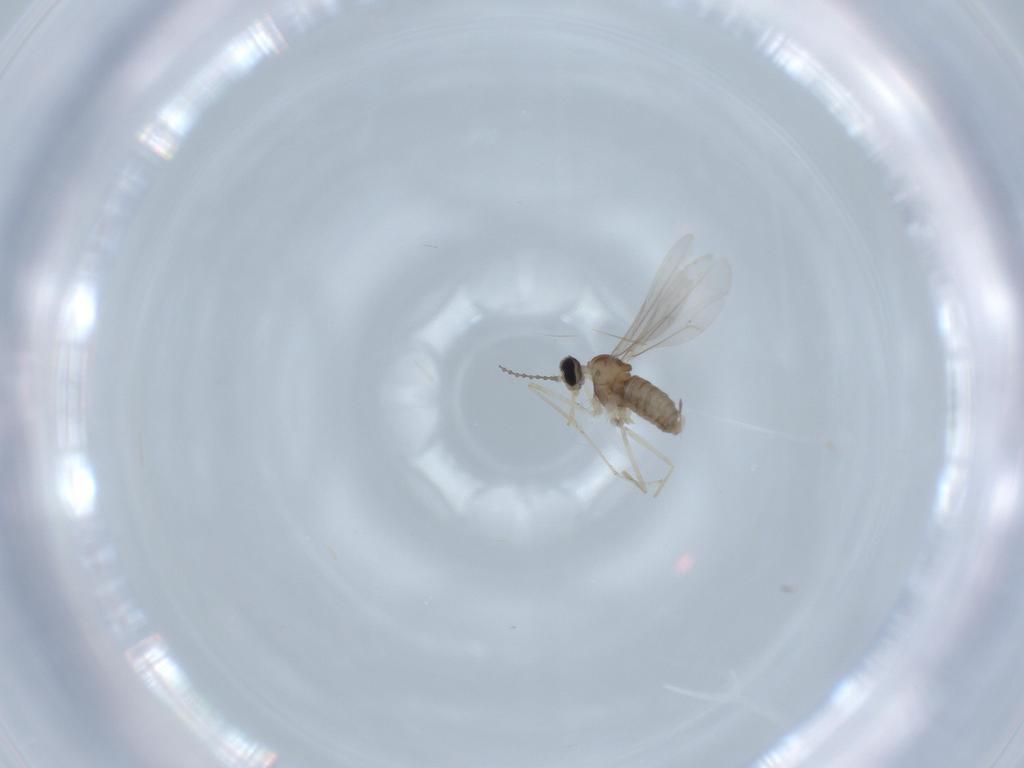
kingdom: Animalia
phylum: Arthropoda
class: Insecta
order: Diptera
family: Cecidomyiidae
